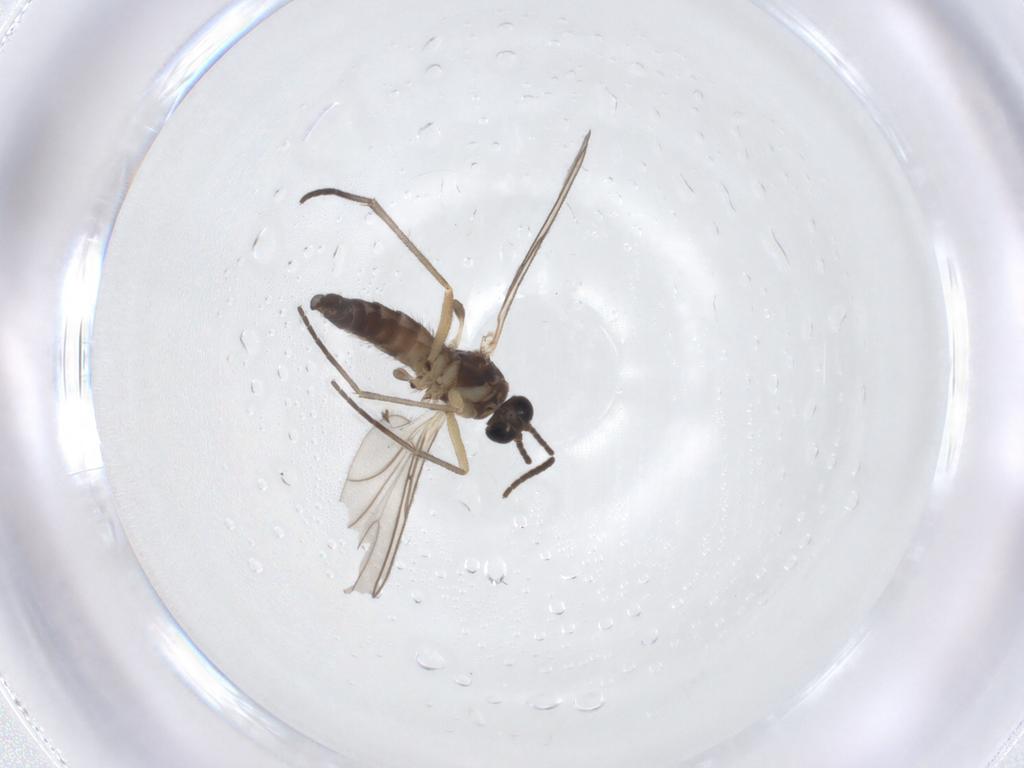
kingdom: Animalia
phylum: Arthropoda
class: Insecta
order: Diptera
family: Sciaridae
